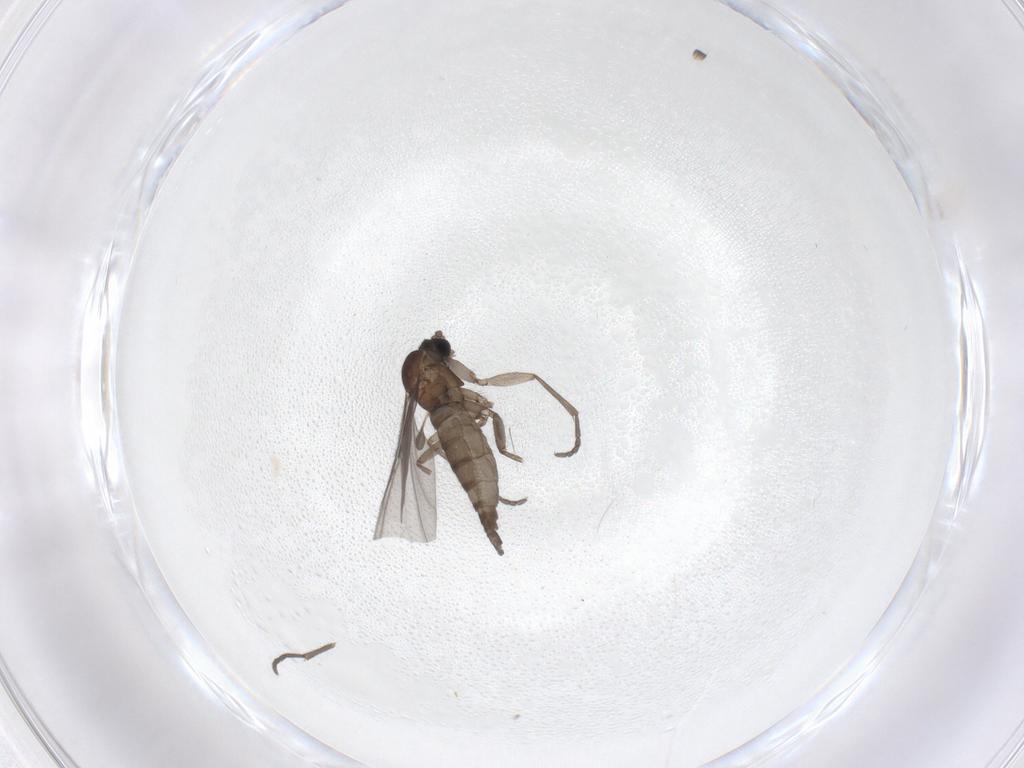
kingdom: Animalia
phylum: Arthropoda
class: Insecta
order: Diptera
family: Sciaridae
